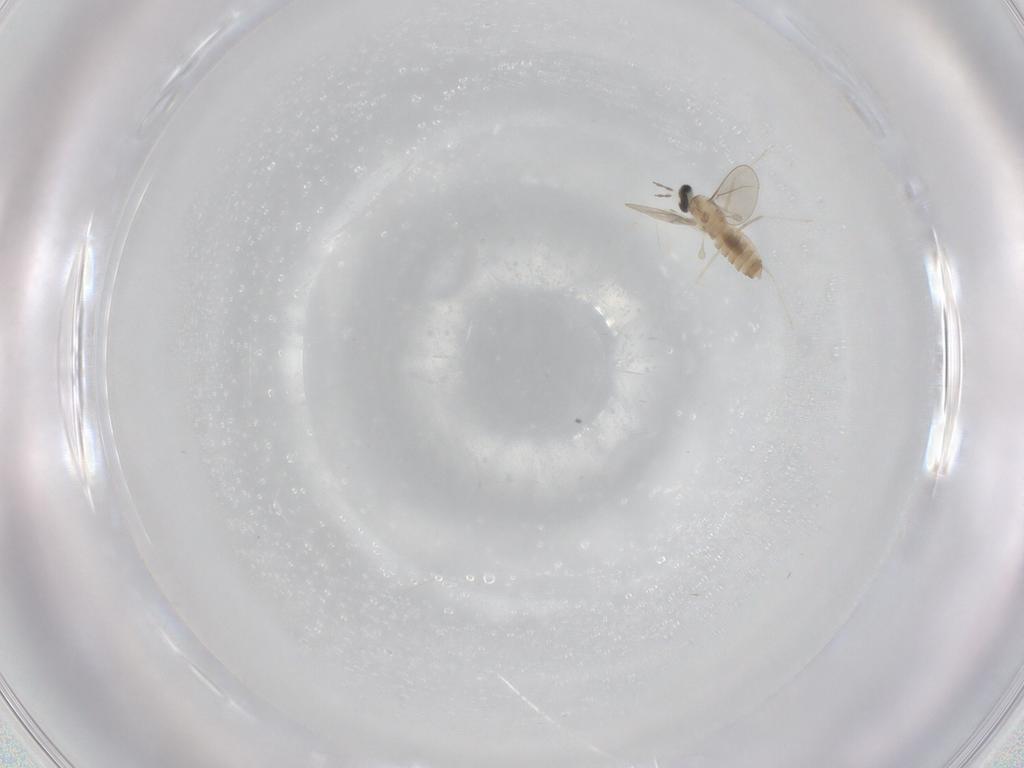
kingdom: Animalia
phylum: Arthropoda
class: Insecta
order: Diptera
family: Cecidomyiidae
